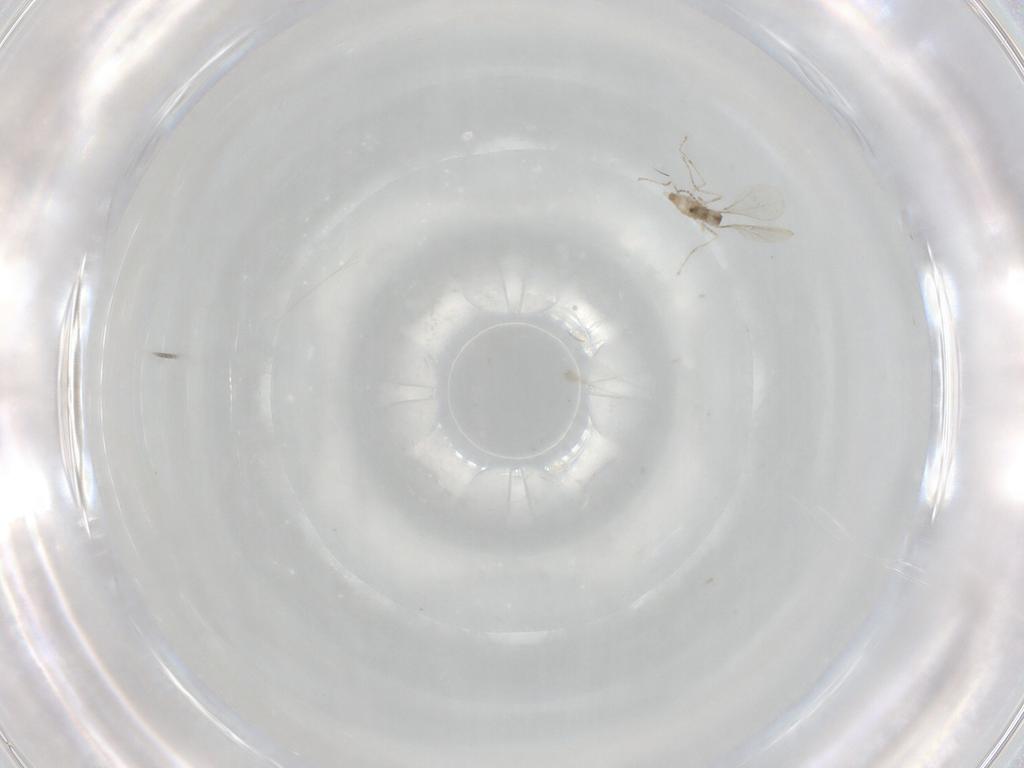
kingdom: Animalia
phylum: Arthropoda
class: Insecta
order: Diptera
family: Cecidomyiidae
